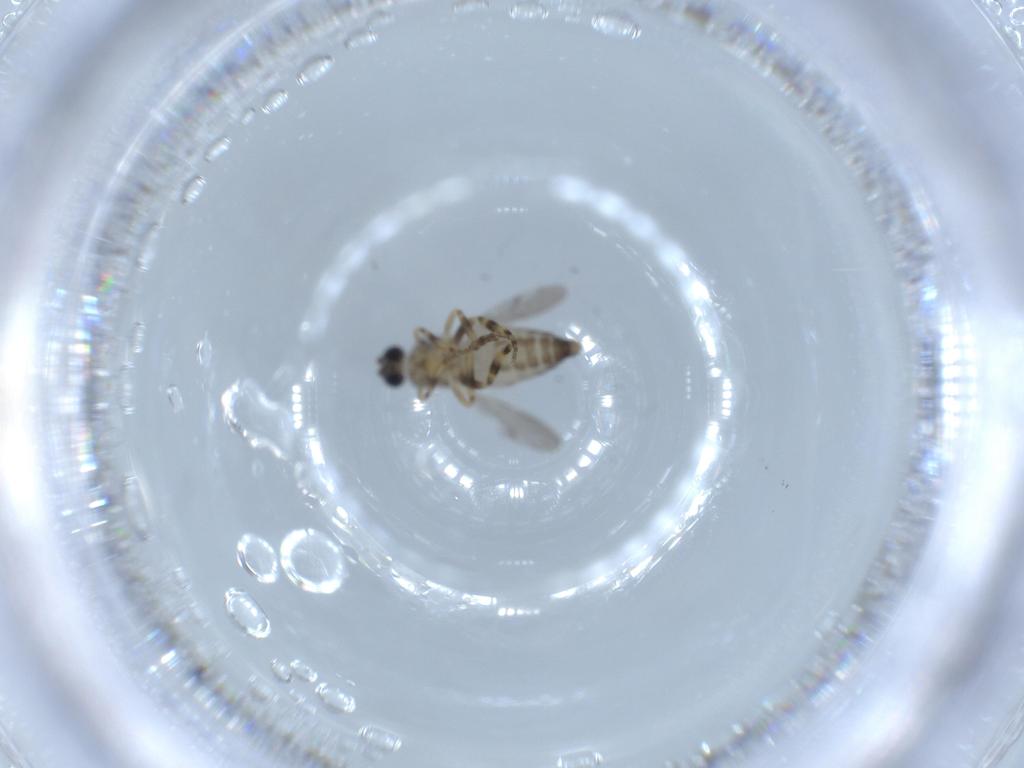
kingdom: Animalia
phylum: Arthropoda
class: Insecta
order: Diptera
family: Ceratopogonidae
